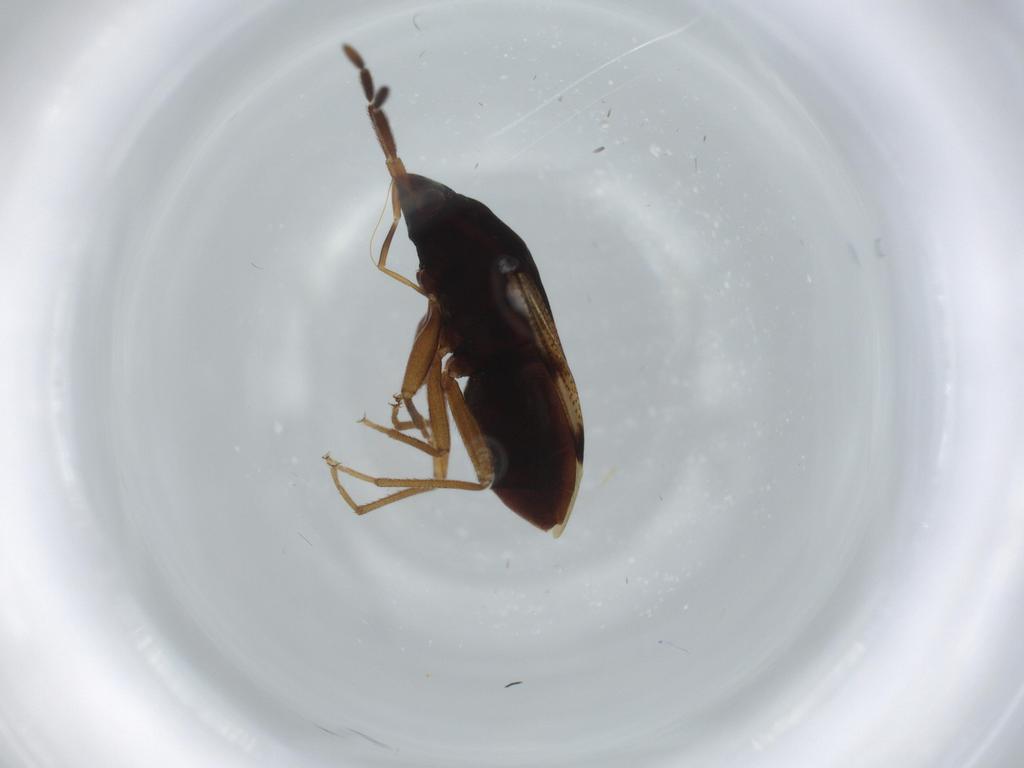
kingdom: Animalia
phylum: Arthropoda
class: Insecta
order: Hemiptera
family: Rhyparochromidae
